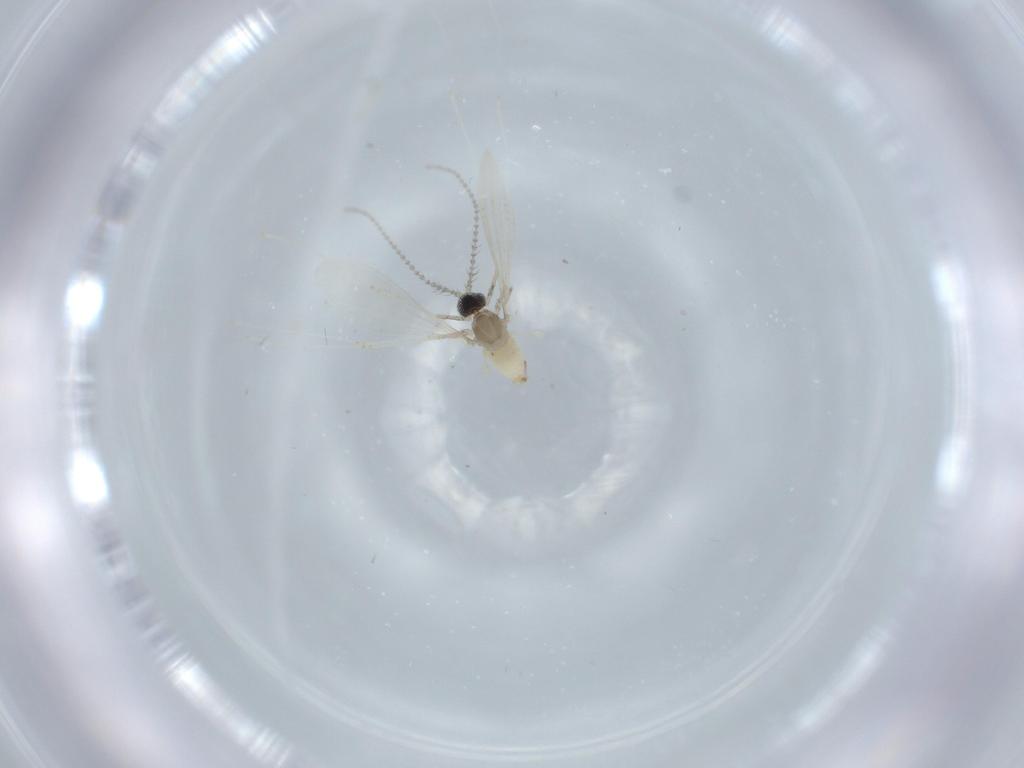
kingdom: Animalia
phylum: Arthropoda
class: Insecta
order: Diptera
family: Cecidomyiidae
